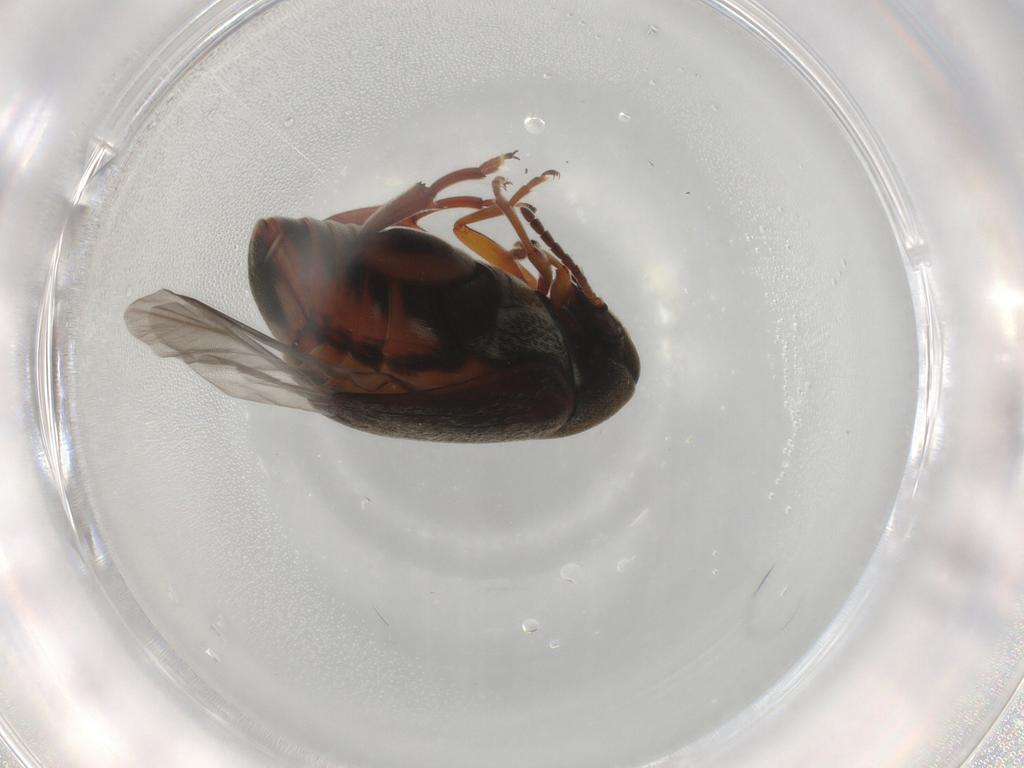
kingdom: Animalia
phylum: Arthropoda
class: Insecta
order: Coleoptera
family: Chrysomelidae
